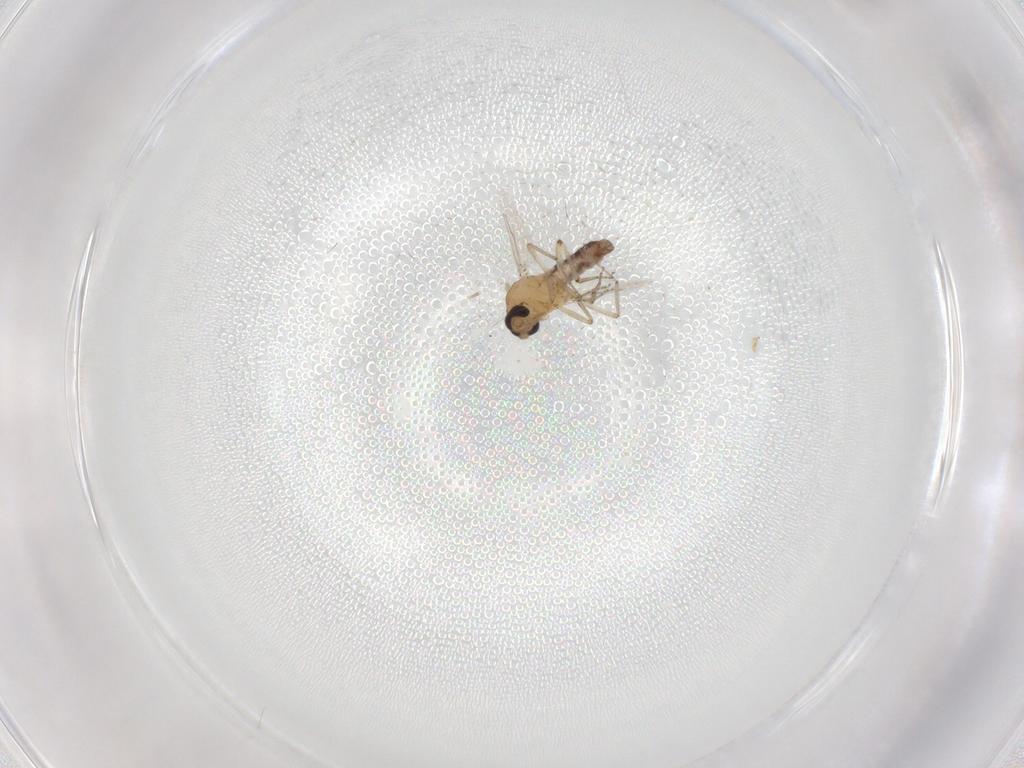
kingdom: Animalia
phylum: Arthropoda
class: Insecta
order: Diptera
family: Ceratopogonidae
